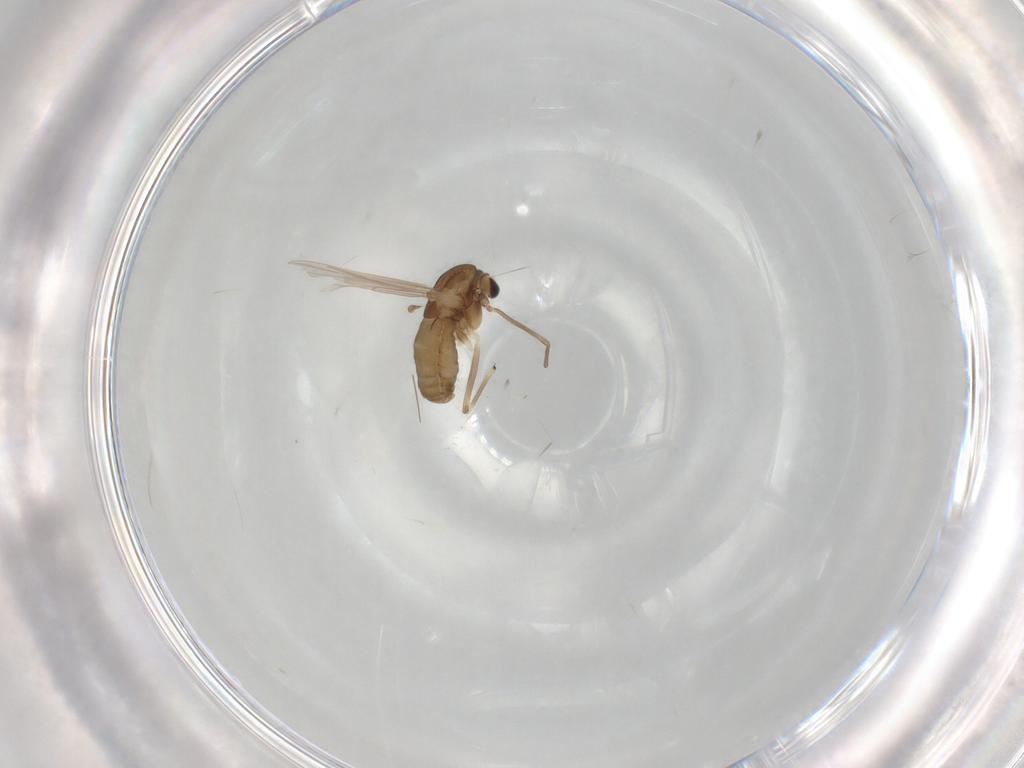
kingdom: Animalia
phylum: Arthropoda
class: Insecta
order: Diptera
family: Chironomidae
